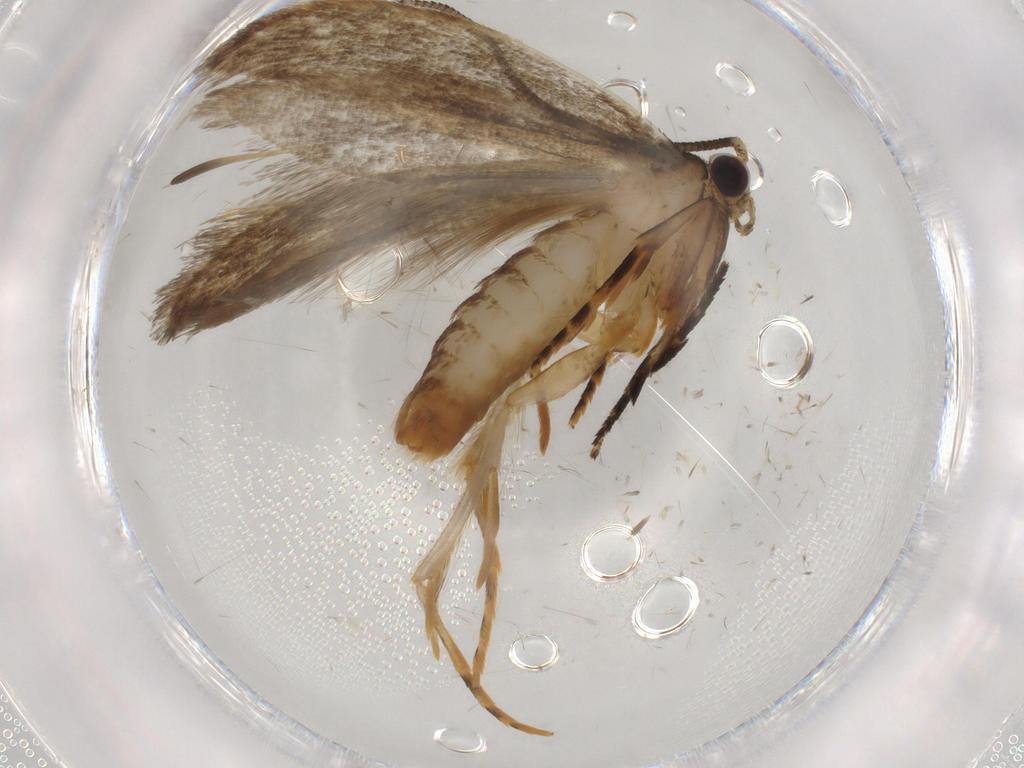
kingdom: Animalia
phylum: Arthropoda
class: Insecta
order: Lepidoptera
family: Tineidae
